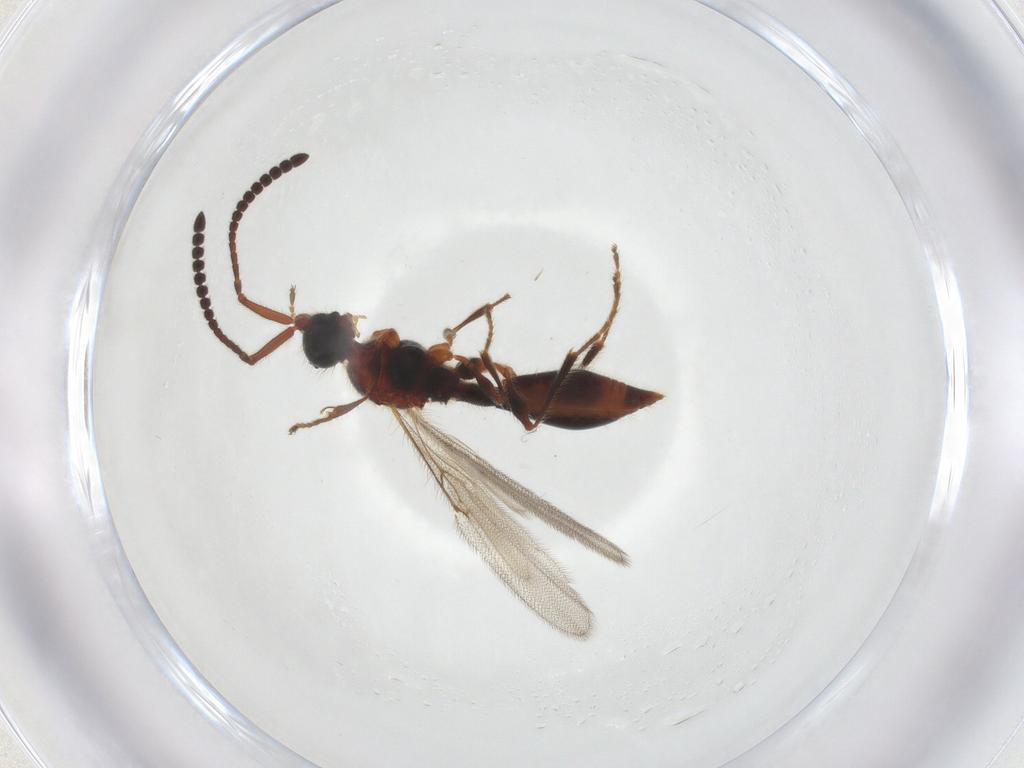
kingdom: Animalia
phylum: Arthropoda
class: Insecta
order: Hymenoptera
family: Diapriidae
